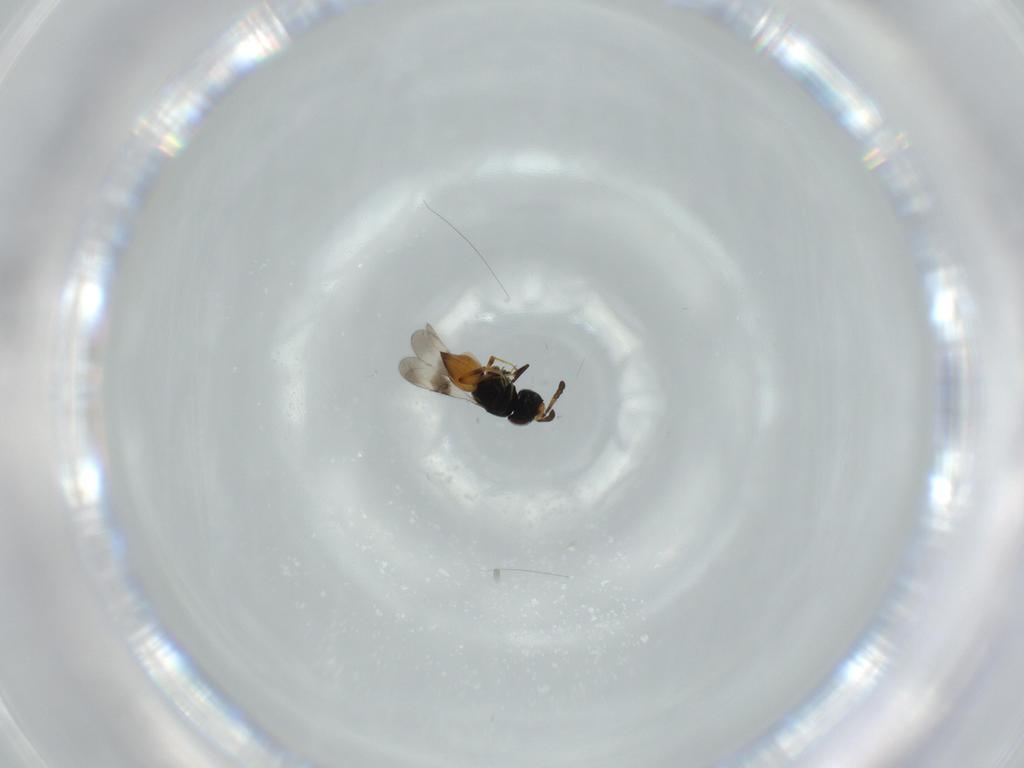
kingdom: Animalia
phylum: Arthropoda
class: Insecta
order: Hymenoptera
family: Ceraphronidae
